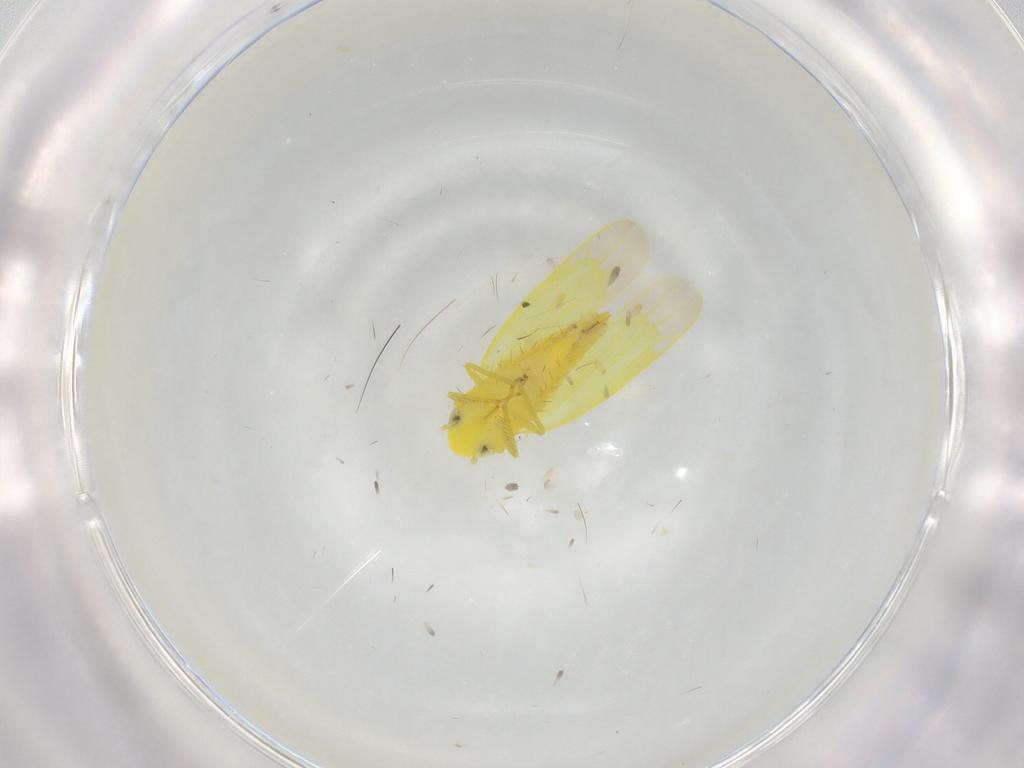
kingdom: Animalia
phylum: Arthropoda
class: Insecta
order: Hemiptera
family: Cicadellidae
